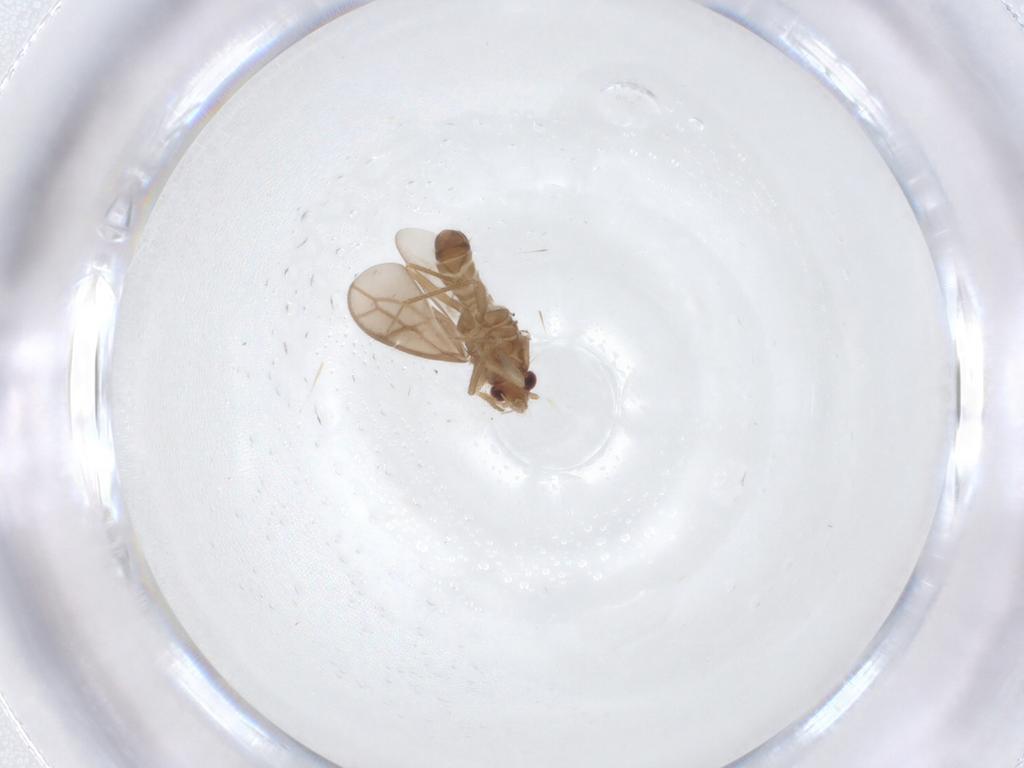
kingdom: Animalia
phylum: Arthropoda
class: Insecta
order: Hemiptera
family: Ceratocombidae
